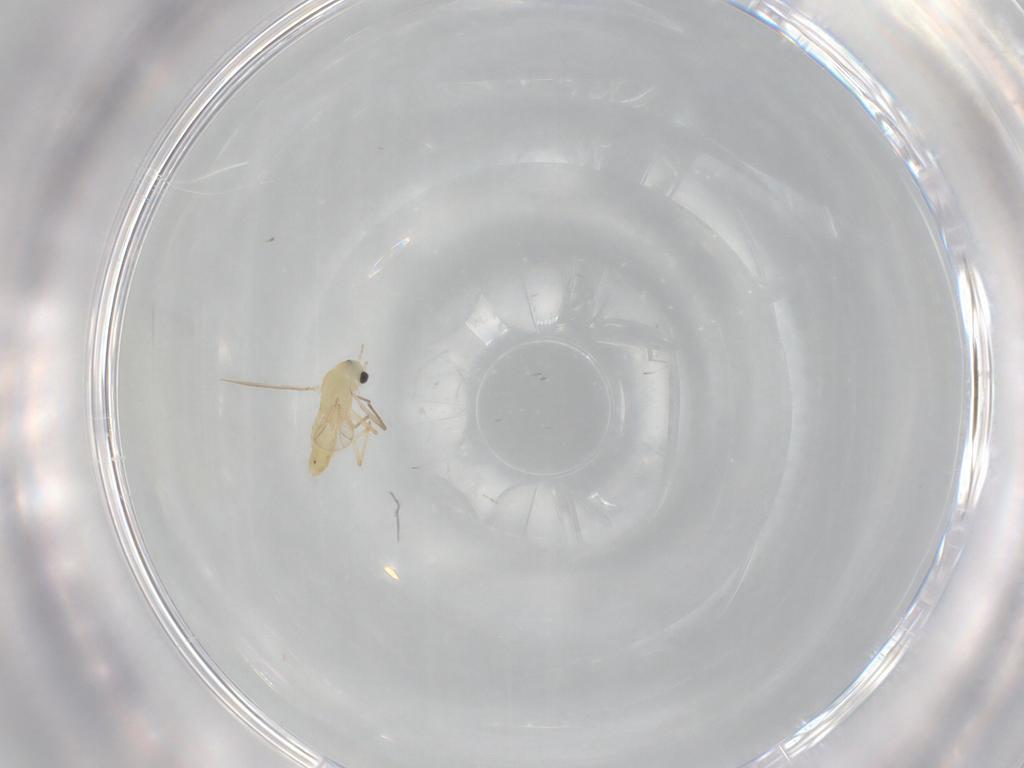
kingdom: Animalia
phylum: Arthropoda
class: Insecta
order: Diptera
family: Chironomidae
